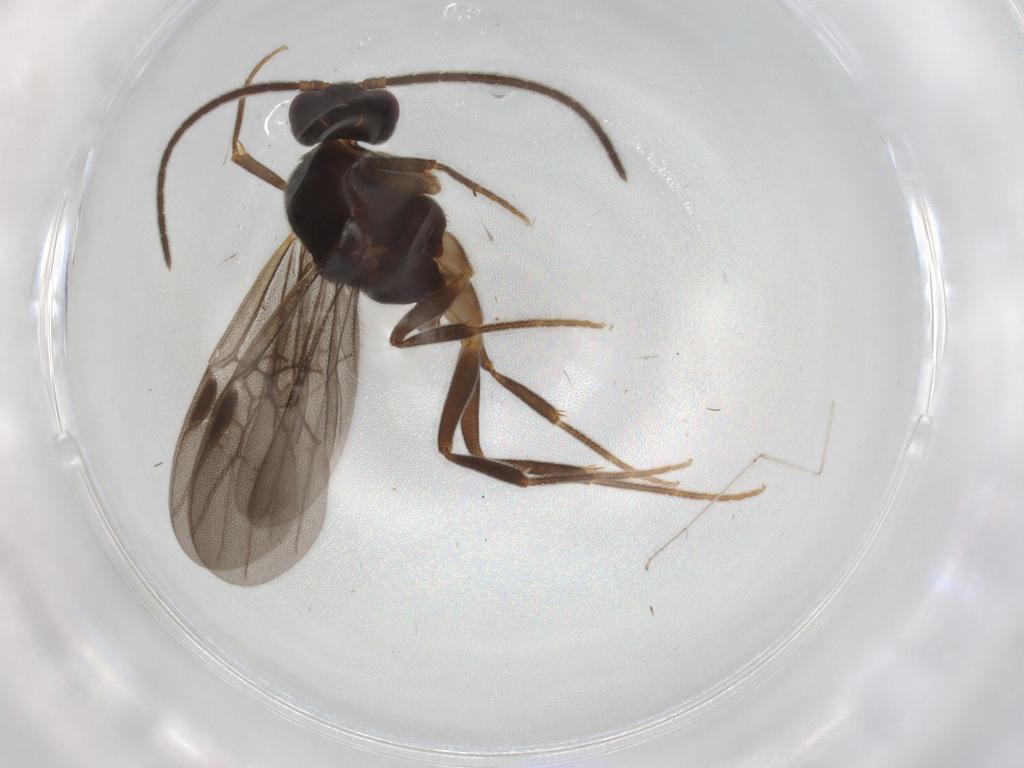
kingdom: Animalia
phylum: Arthropoda
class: Insecta
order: Hymenoptera
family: Formicidae
